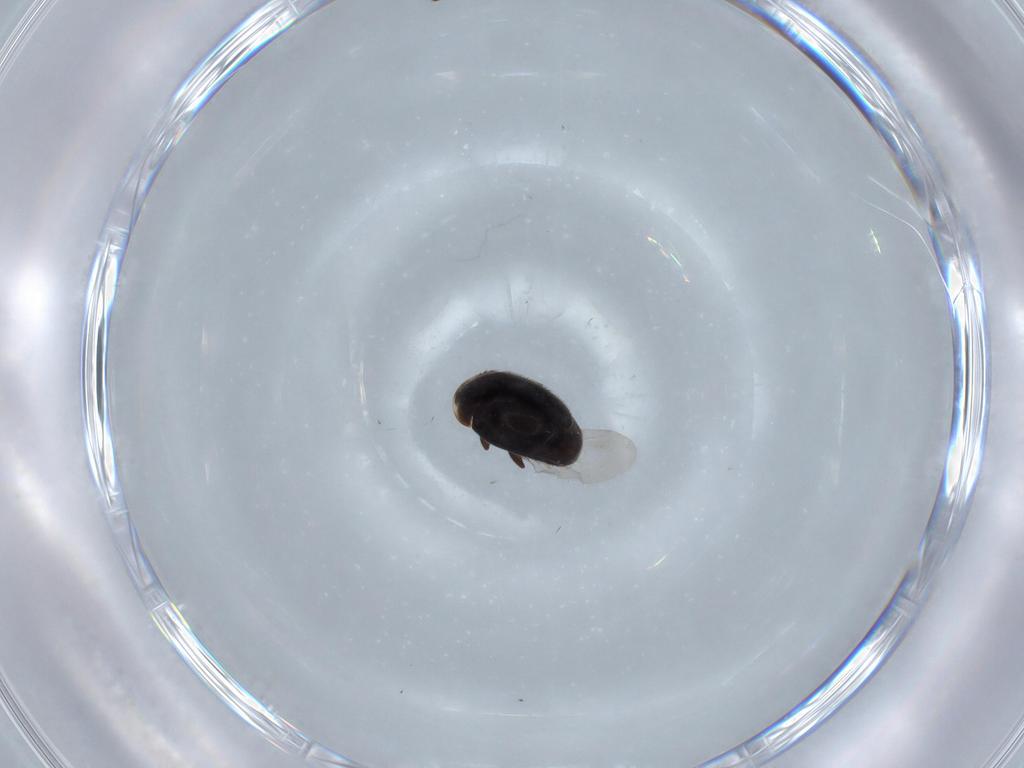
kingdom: Animalia
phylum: Arthropoda
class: Insecta
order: Coleoptera
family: Corylophidae
